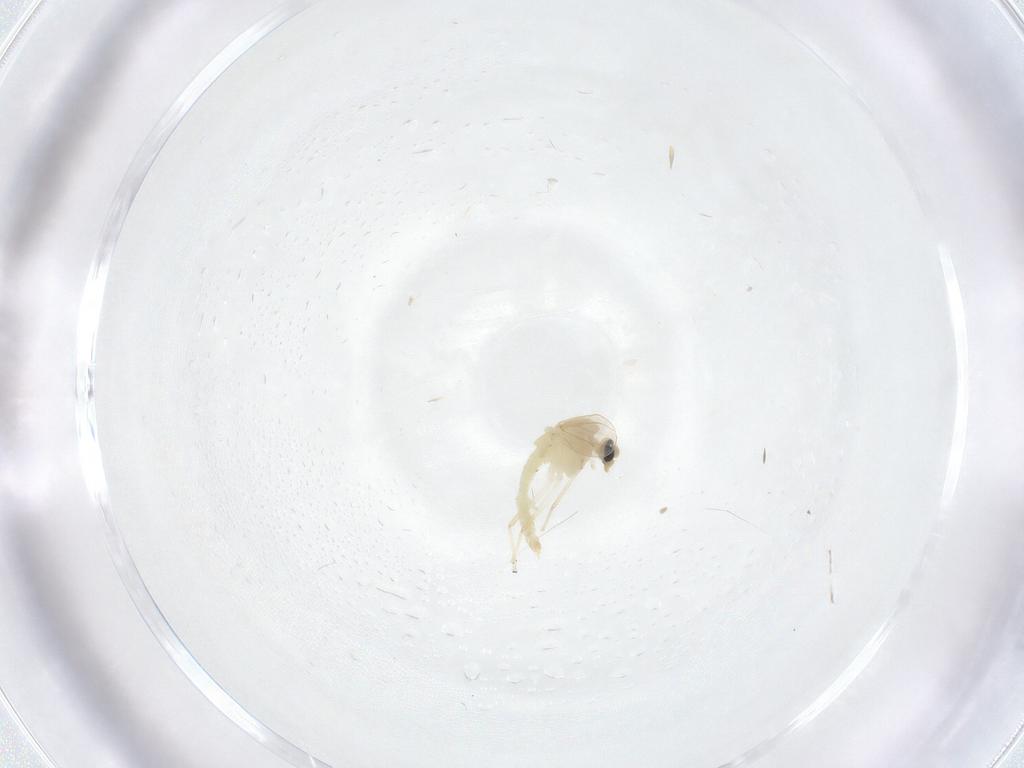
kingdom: Animalia
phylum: Arthropoda
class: Insecta
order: Diptera
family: Chironomidae
